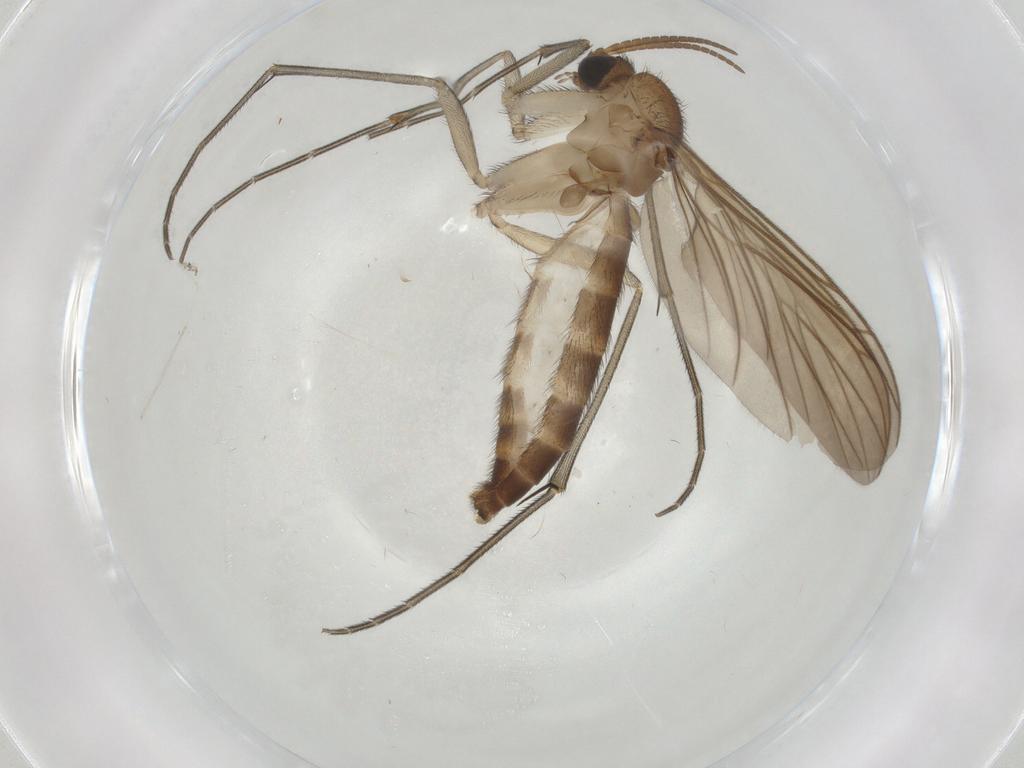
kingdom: Animalia
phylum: Arthropoda
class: Insecta
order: Diptera
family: Keroplatidae
